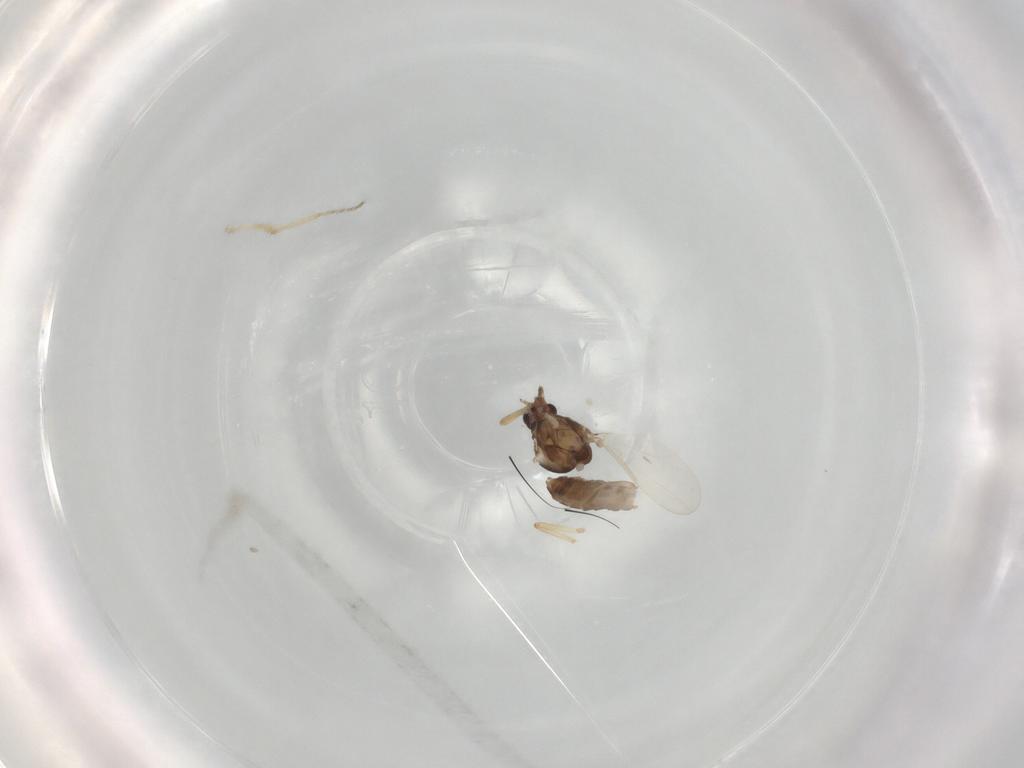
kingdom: Animalia
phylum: Arthropoda
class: Insecta
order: Diptera
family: Ceratopogonidae
